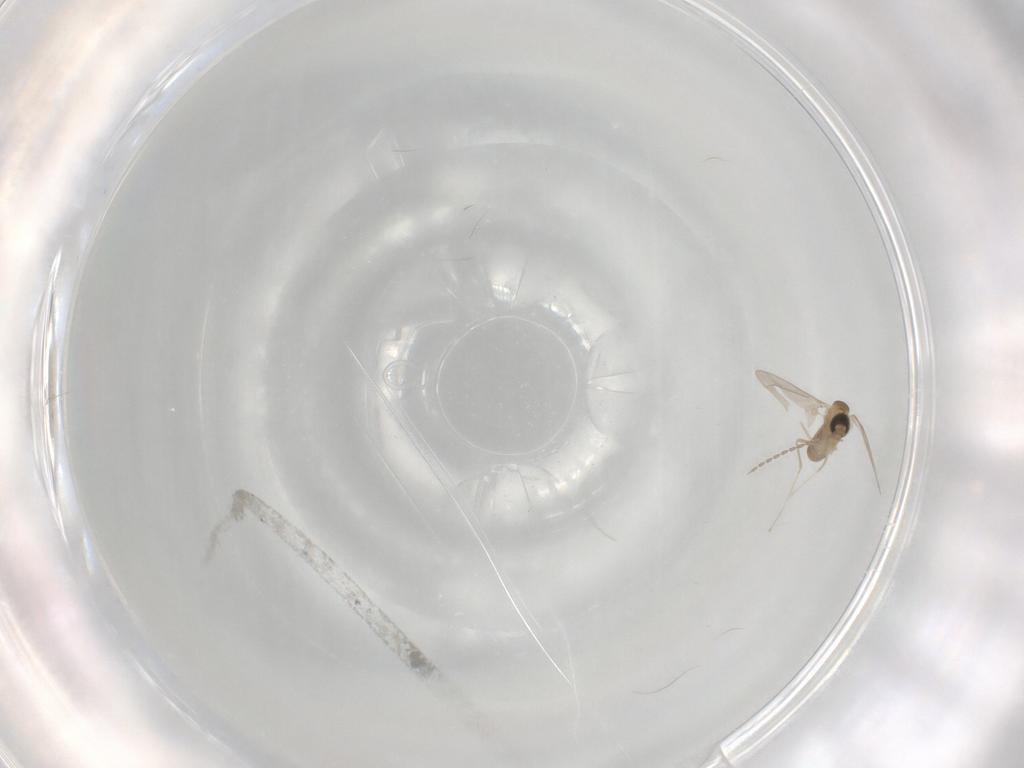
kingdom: Animalia
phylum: Arthropoda
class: Insecta
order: Diptera
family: Cecidomyiidae
